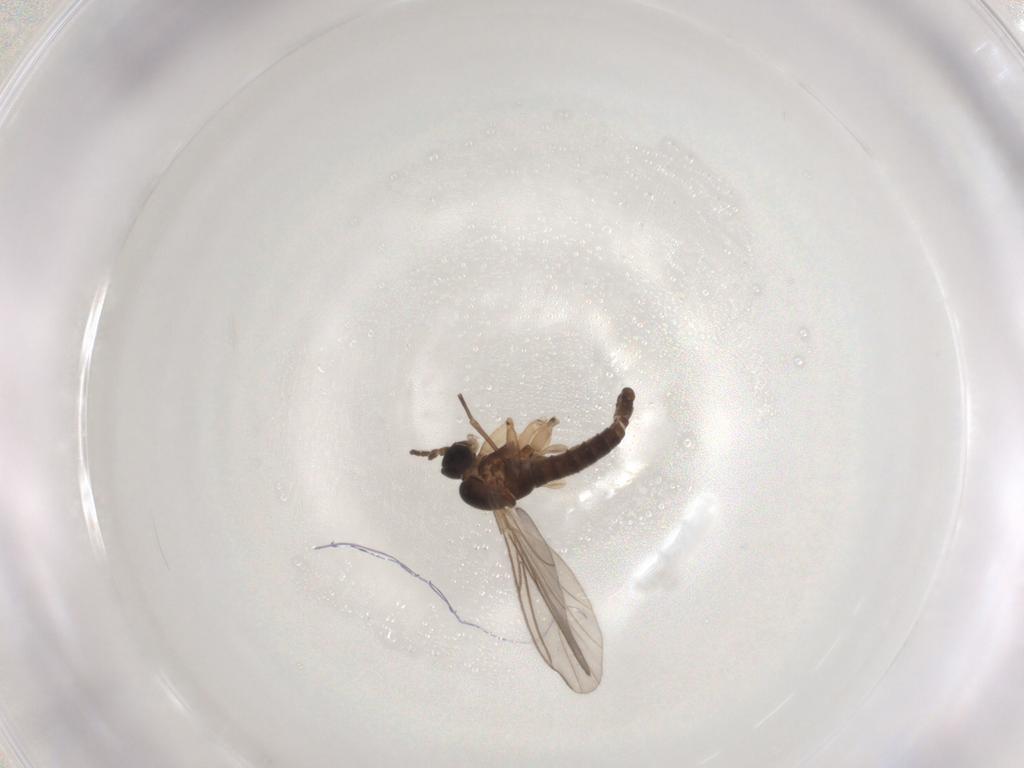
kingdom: Animalia
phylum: Arthropoda
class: Insecta
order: Diptera
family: Sciaridae
